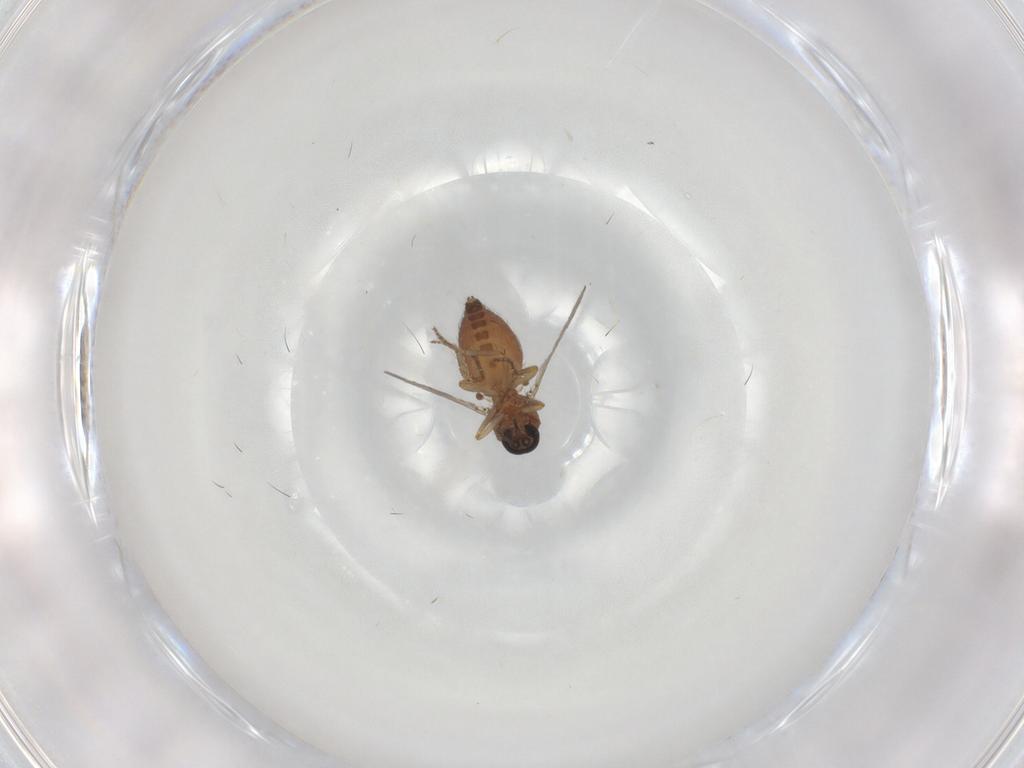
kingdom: Animalia
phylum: Arthropoda
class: Insecta
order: Diptera
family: Ceratopogonidae
